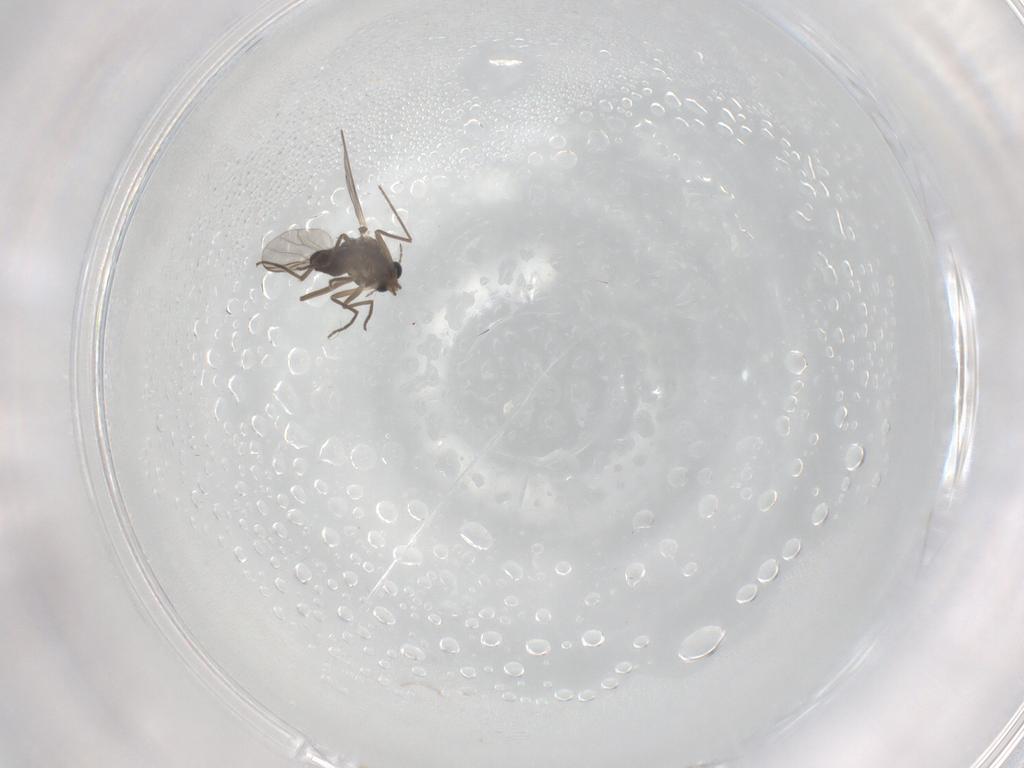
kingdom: Animalia
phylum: Arthropoda
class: Insecta
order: Diptera
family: Chironomidae
